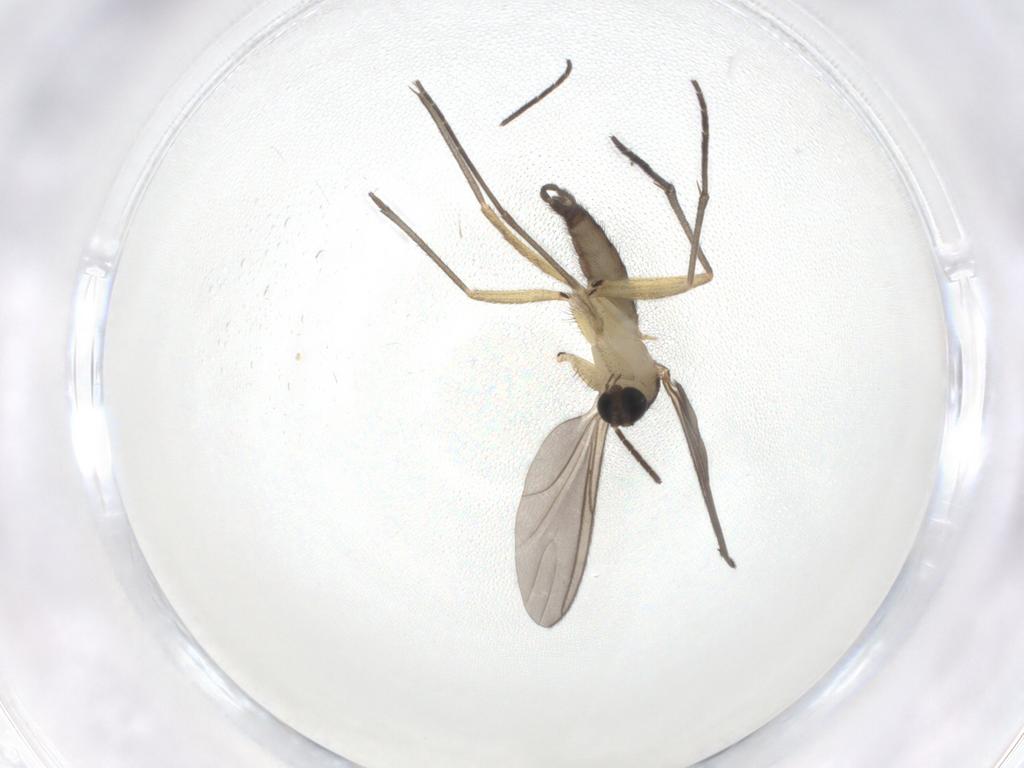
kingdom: Animalia
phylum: Arthropoda
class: Insecta
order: Diptera
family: Sciaridae
